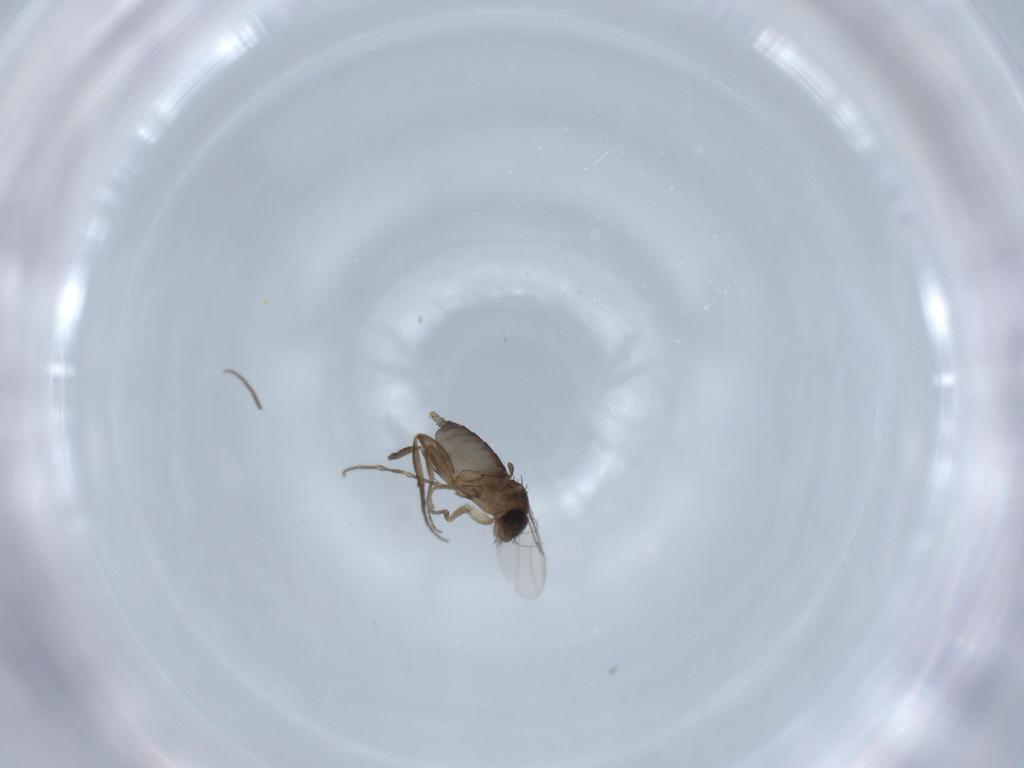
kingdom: Animalia
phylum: Arthropoda
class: Insecta
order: Diptera
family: Phoridae
